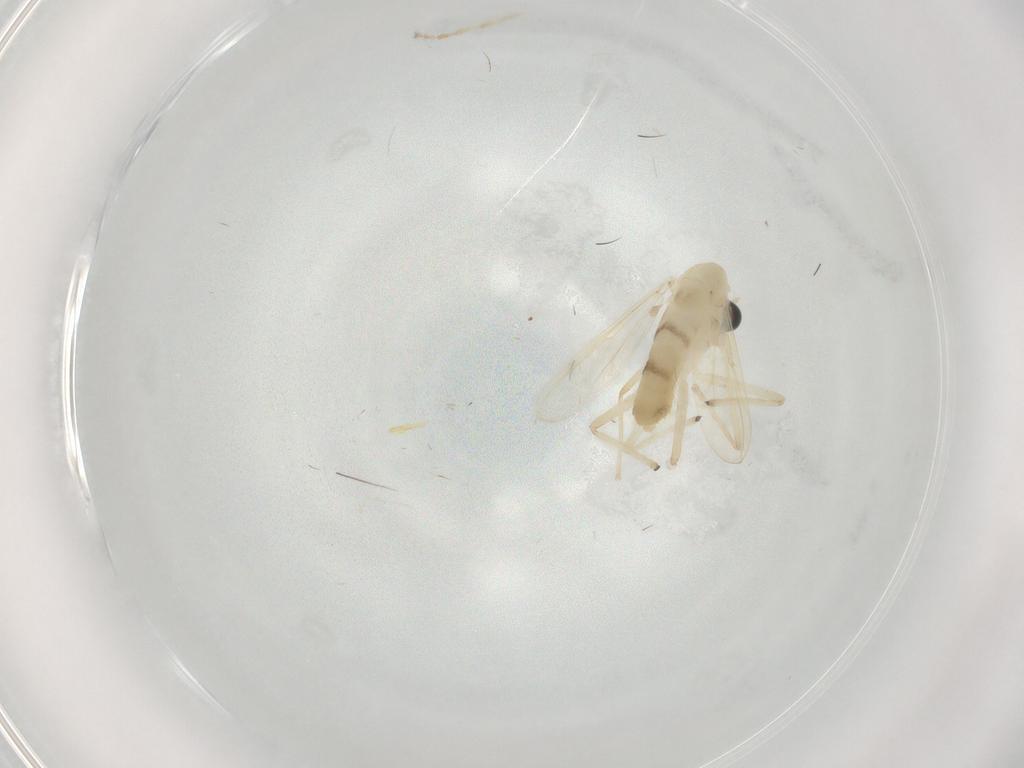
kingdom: Animalia
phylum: Arthropoda
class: Insecta
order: Diptera
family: Chironomidae
